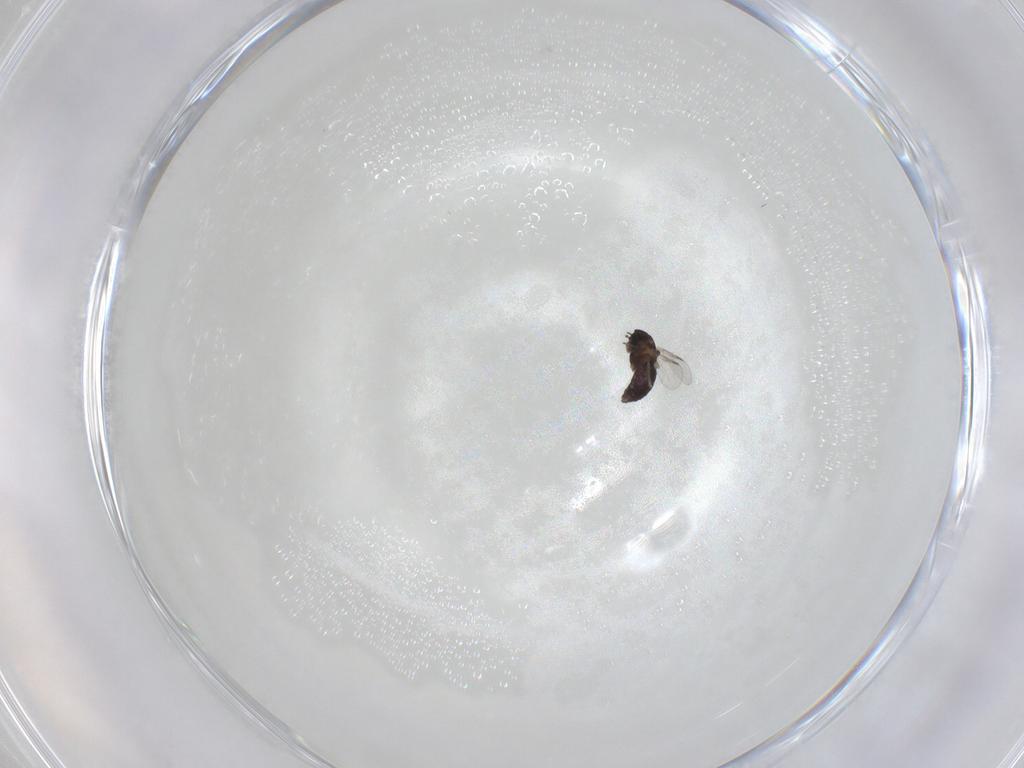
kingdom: Animalia
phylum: Arthropoda
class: Insecta
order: Diptera
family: Chironomidae
